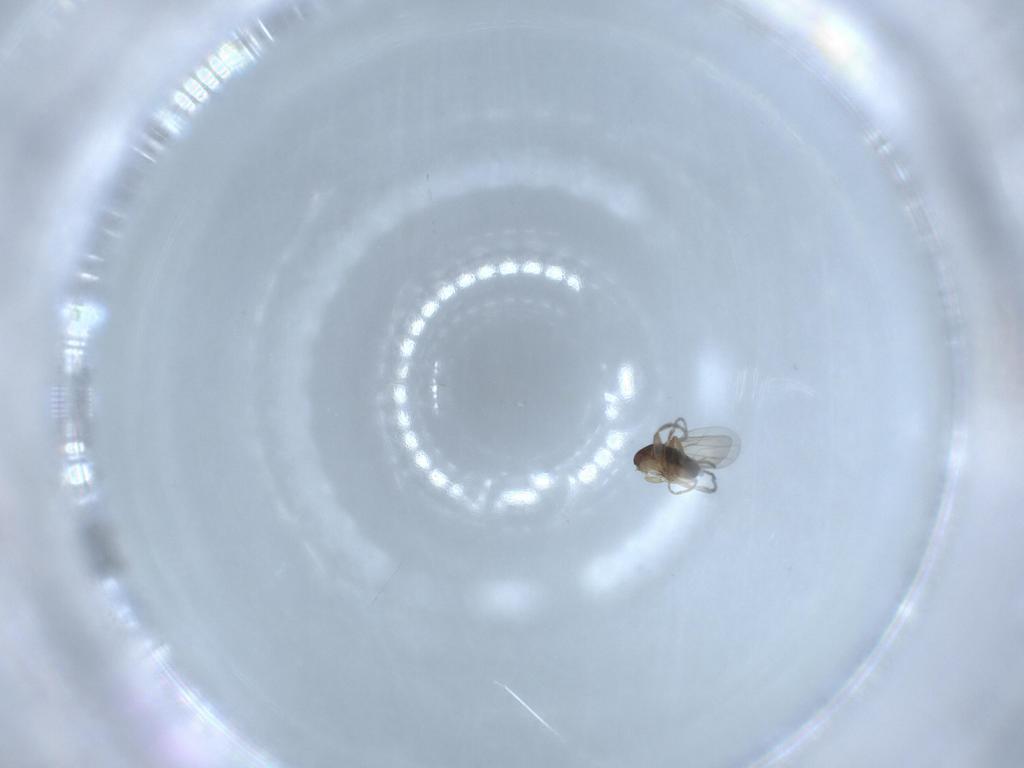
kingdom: Animalia
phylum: Arthropoda
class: Insecta
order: Diptera
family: Phoridae
